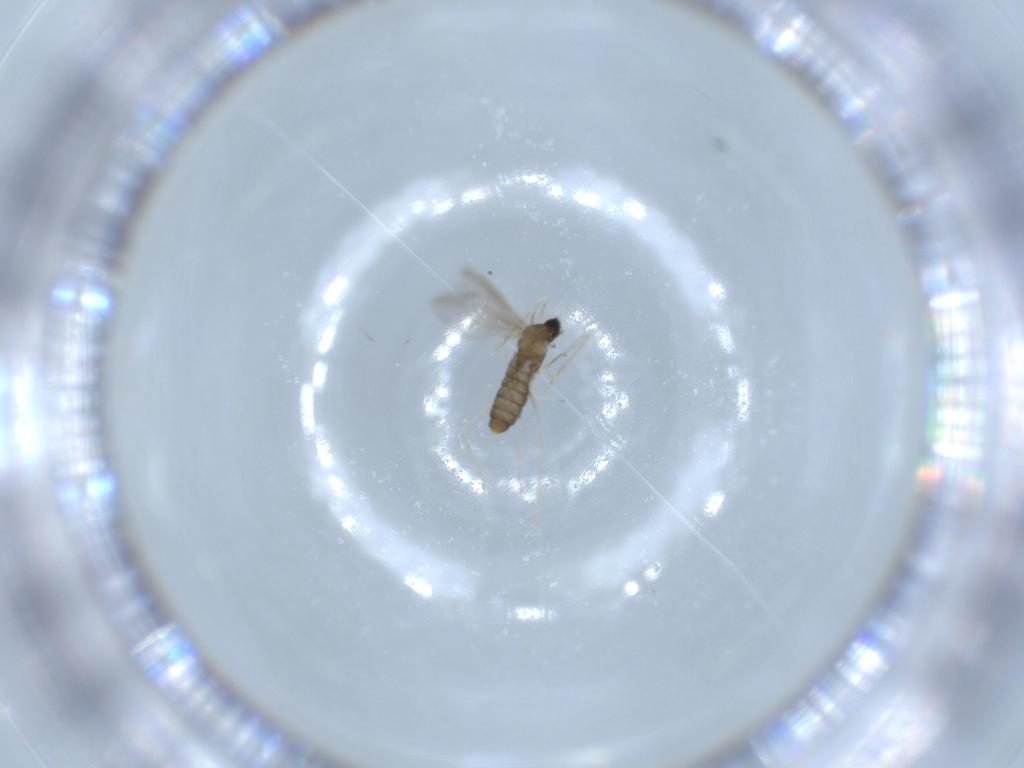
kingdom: Animalia
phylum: Arthropoda
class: Insecta
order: Diptera
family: Cecidomyiidae
